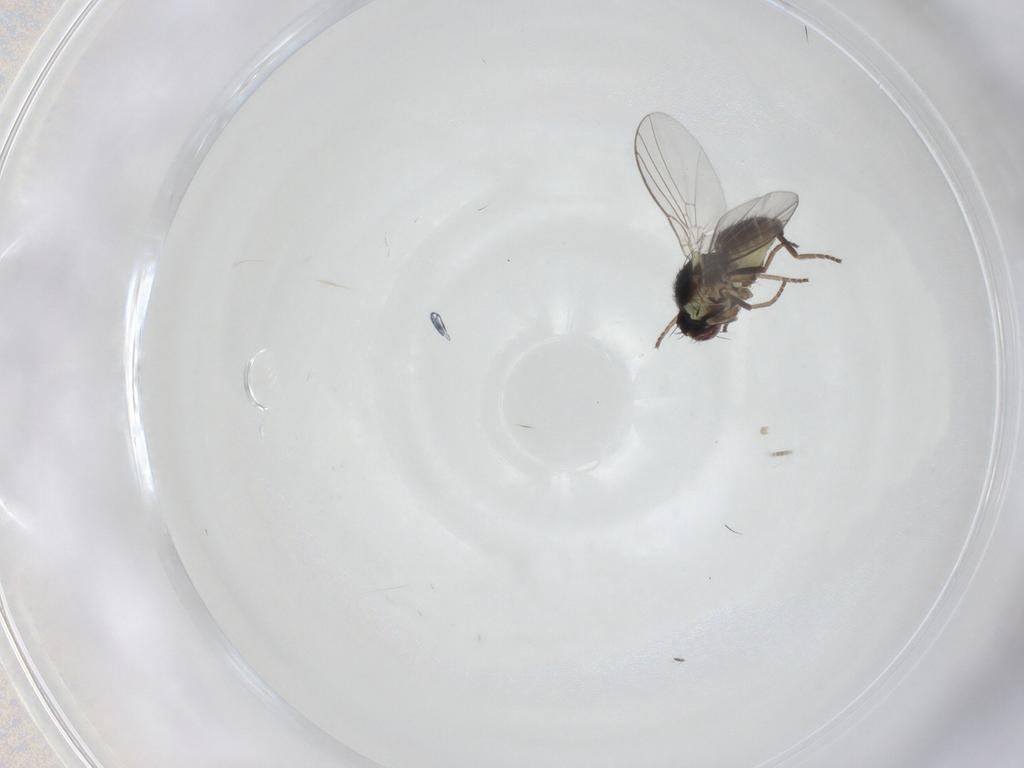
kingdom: Animalia
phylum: Arthropoda
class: Insecta
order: Diptera
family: Agromyzidae
